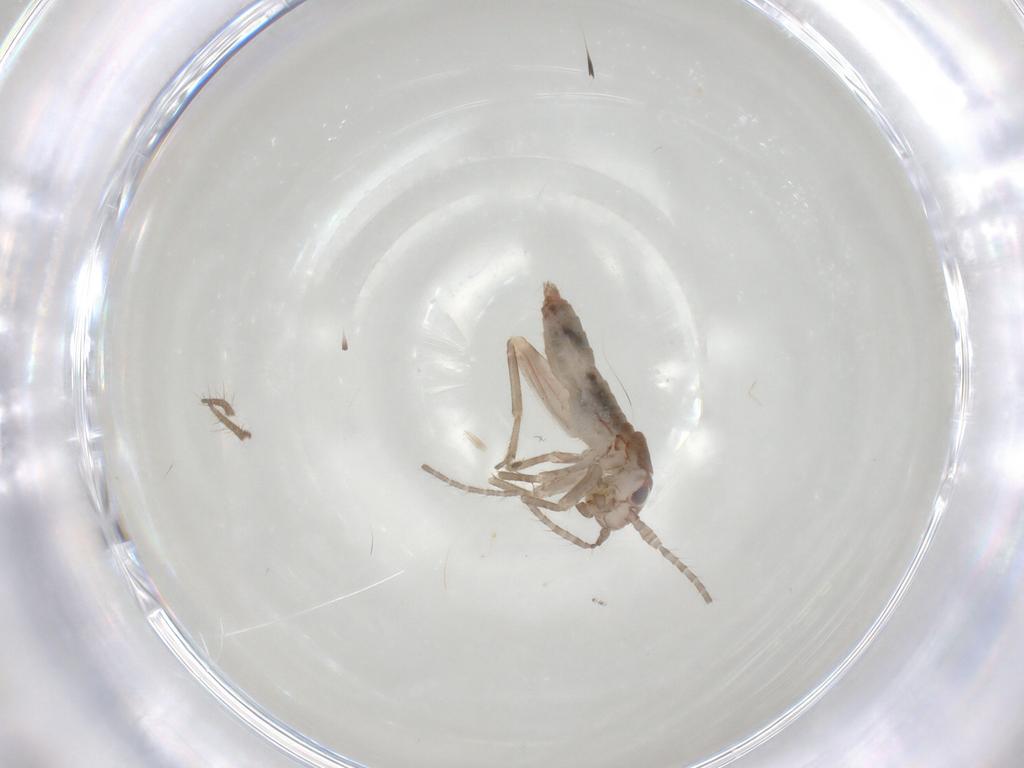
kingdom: Animalia
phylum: Arthropoda
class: Insecta
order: Orthoptera
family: Mogoplistidae
